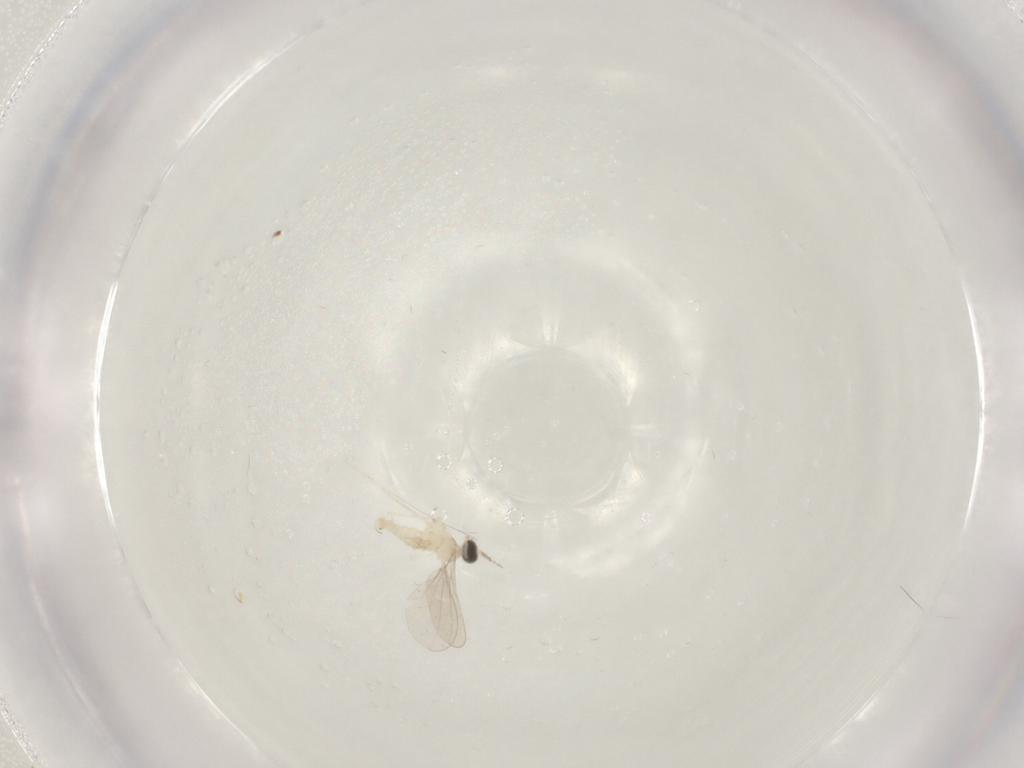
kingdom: Animalia
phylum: Arthropoda
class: Insecta
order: Diptera
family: Cecidomyiidae
